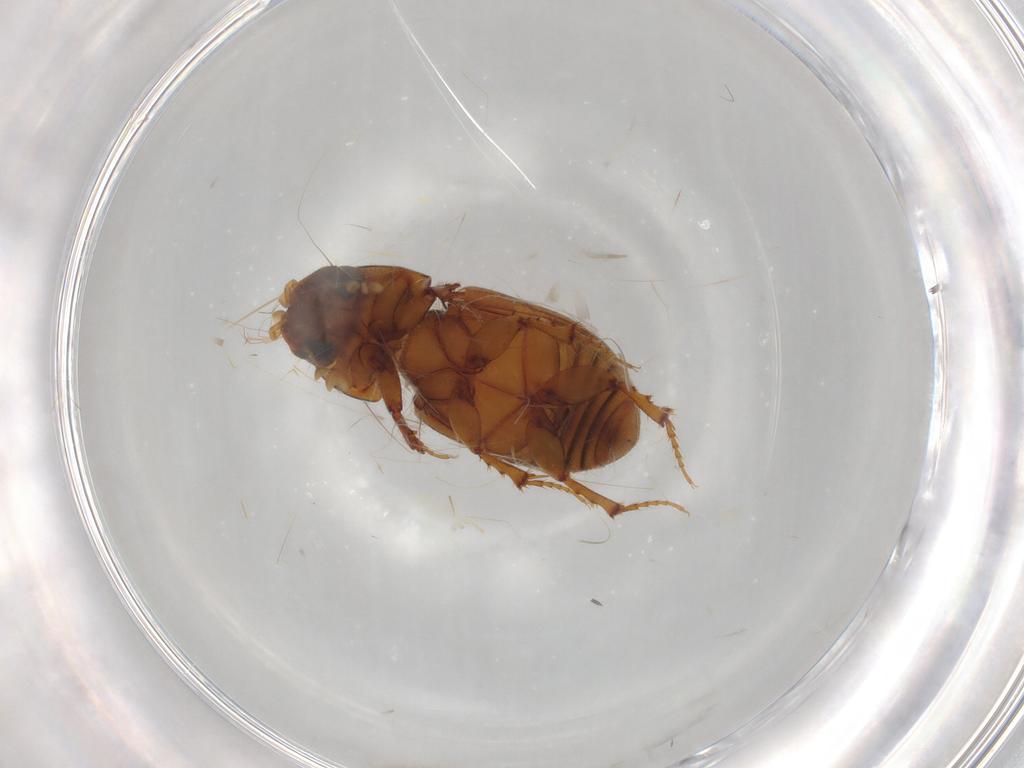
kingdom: Animalia
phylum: Arthropoda
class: Insecta
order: Coleoptera
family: Staphylinidae
